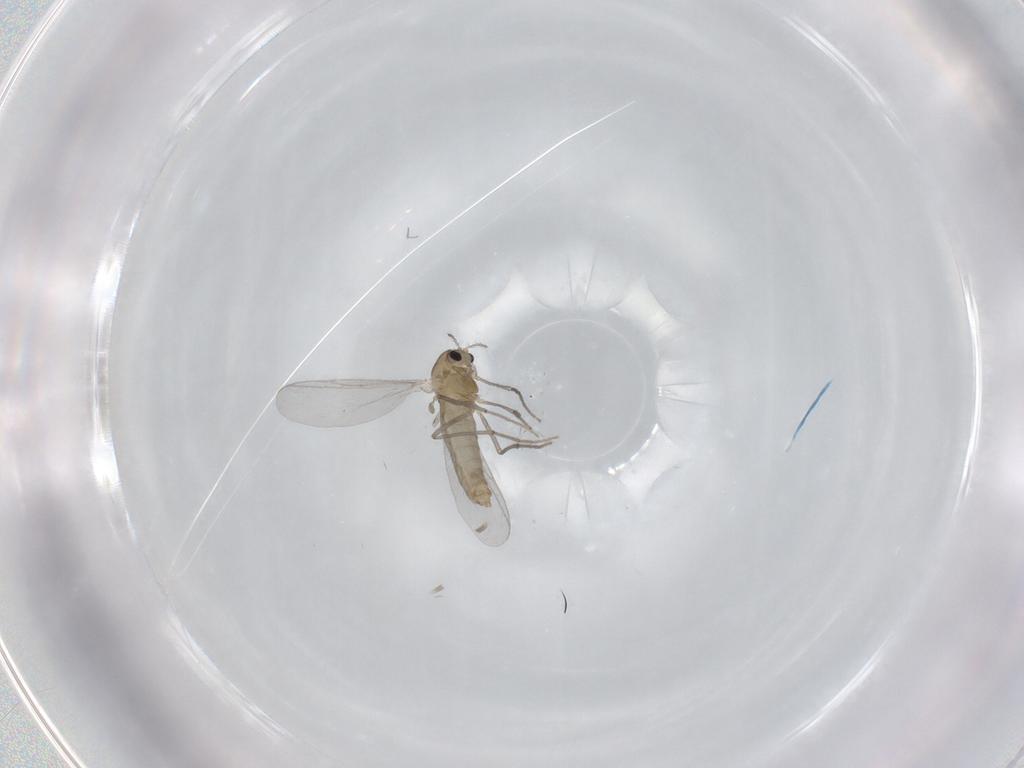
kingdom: Animalia
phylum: Arthropoda
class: Insecta
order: Diptera
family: Chironomidae
